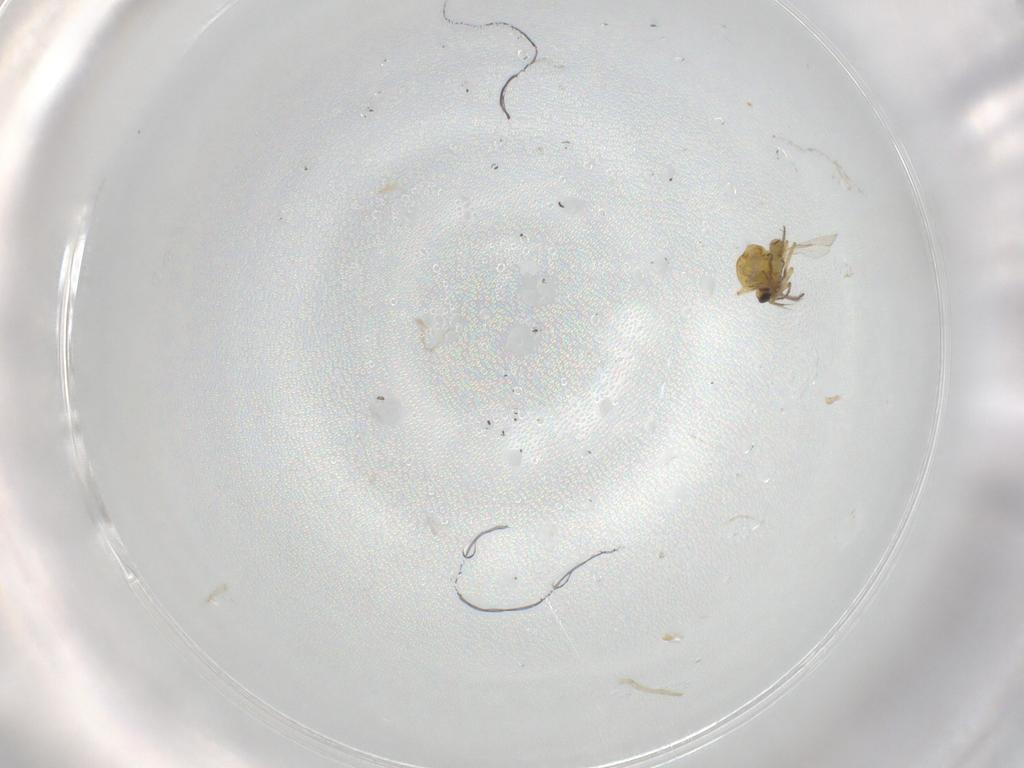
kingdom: Animalia
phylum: Arthropoda
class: Insecta
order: Diptera
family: Ceratopogonidae
